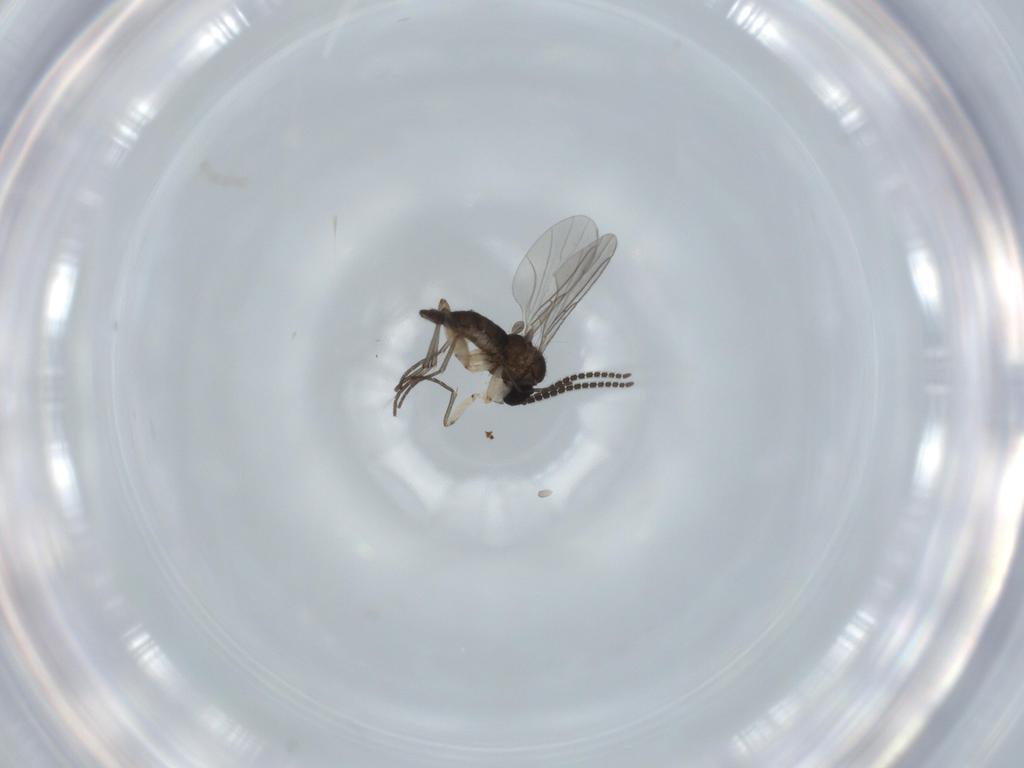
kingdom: Animalia
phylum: Arthropoda
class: Insecta
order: Diptera
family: Sciaridae
